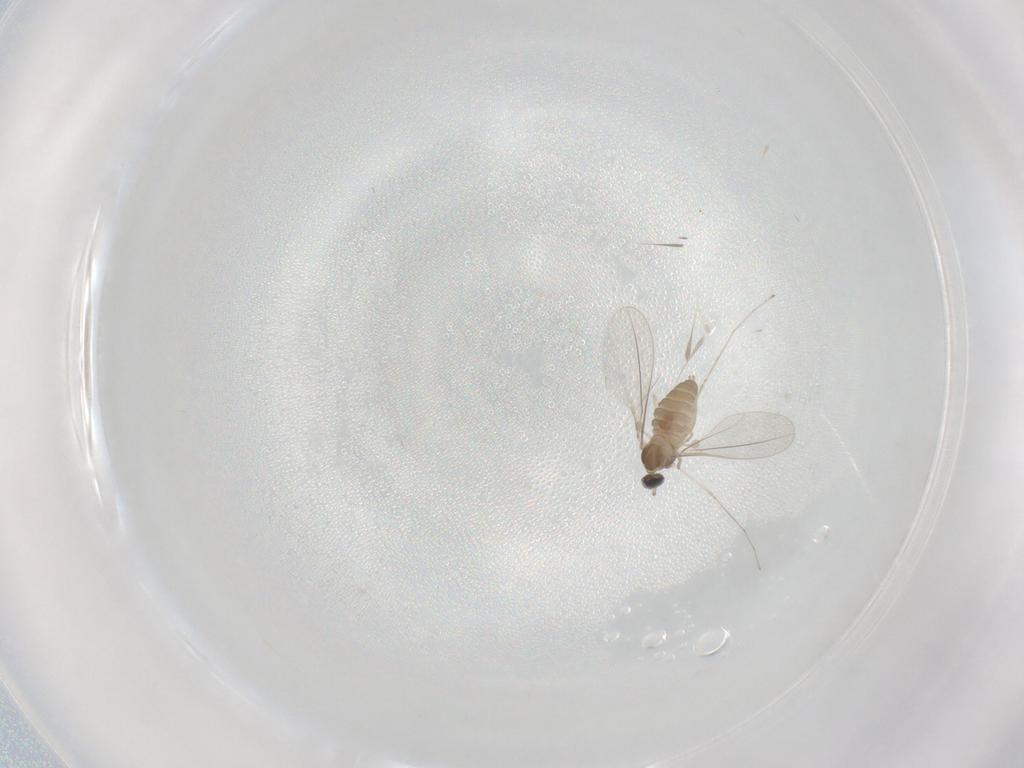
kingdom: Animalia
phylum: Arthropoda
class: Insecta
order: Diptera
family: Cecidomyiidae
